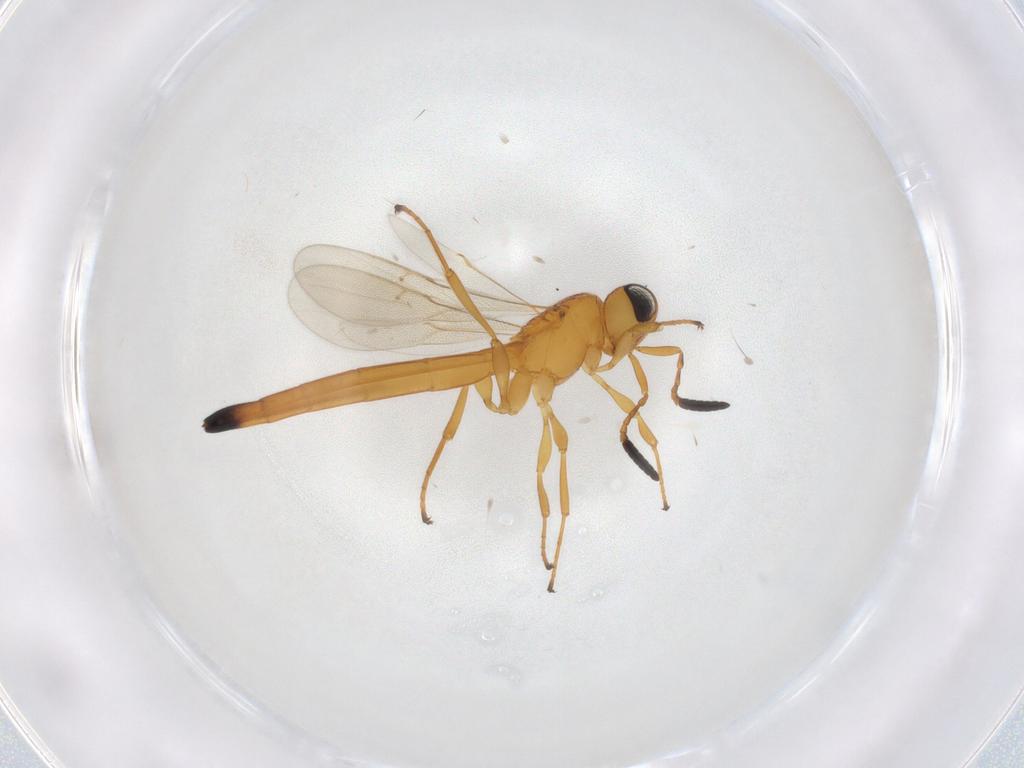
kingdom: Animalia
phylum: Arthropoda
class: Insecta
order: Hymenoptera
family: Scelionidae
